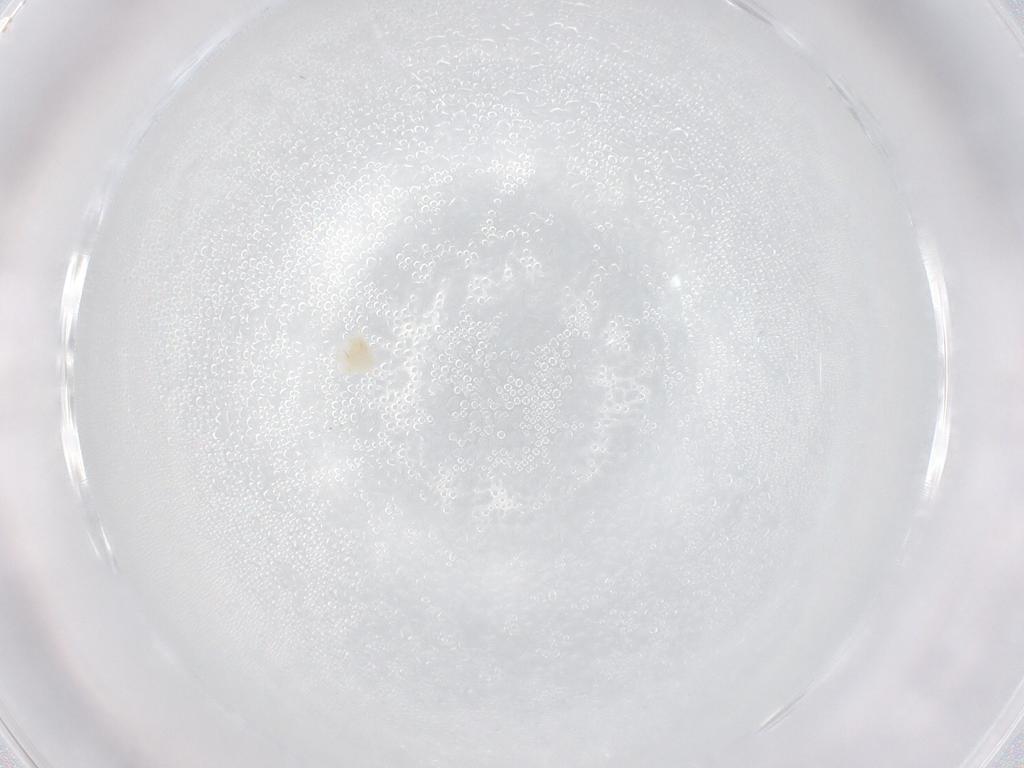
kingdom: Animalia
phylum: Arthropoda
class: Arachnida
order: Trombidiformes
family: Anystidae
